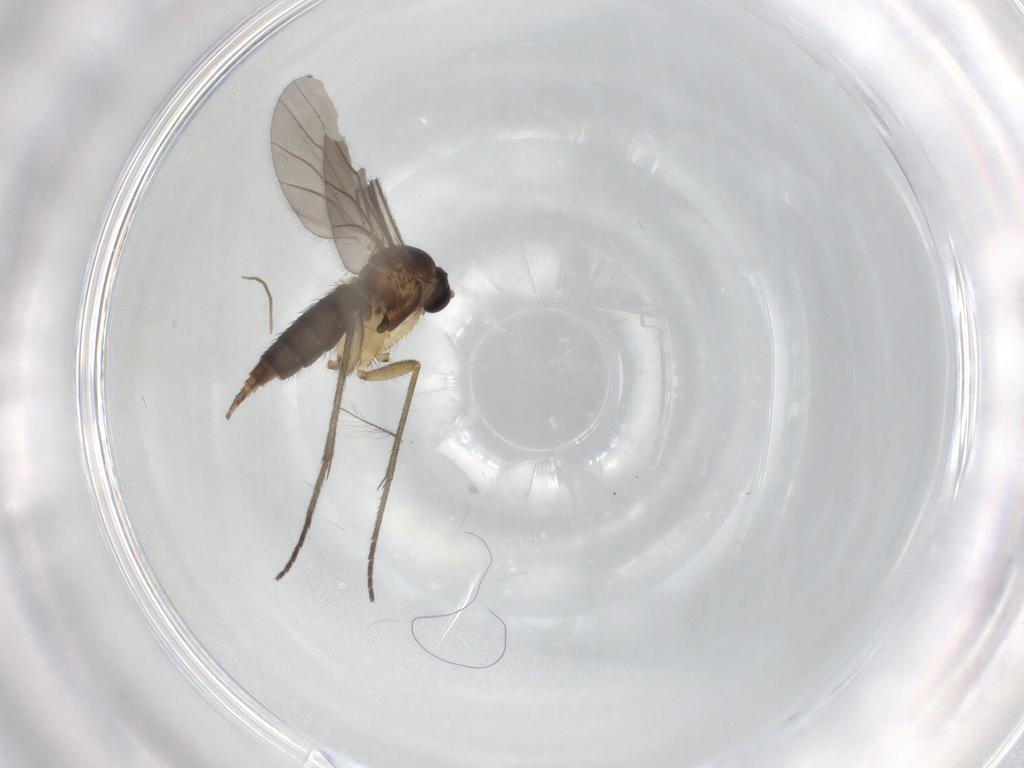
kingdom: Animalia
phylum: Arthropoda
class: Insecta
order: Diptera
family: Sciaridae
